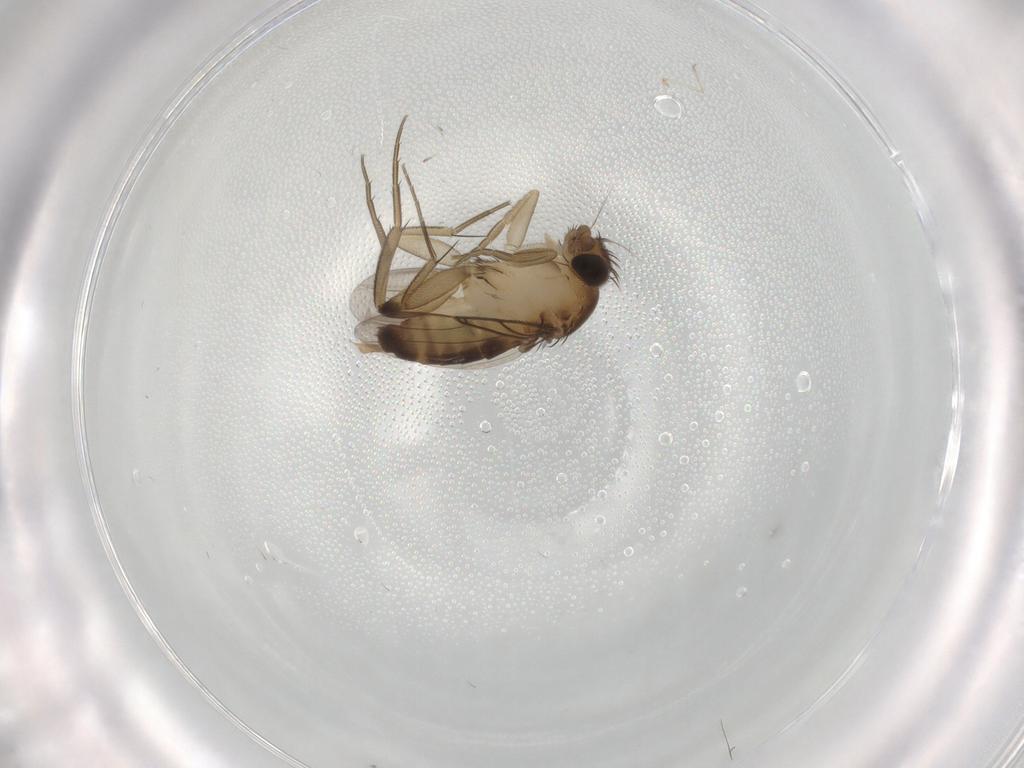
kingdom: Animalia
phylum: Arthropoda
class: Insecta
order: Diptera
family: Phoridae
